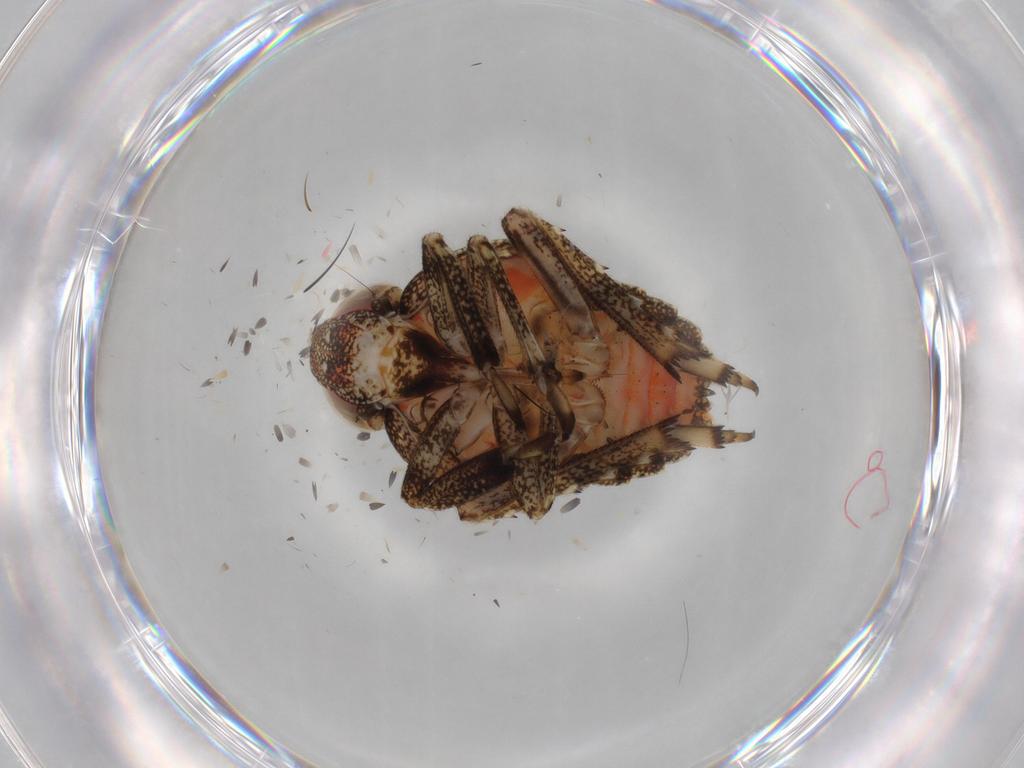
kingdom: Animalia
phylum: Arthropoda
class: Insecta
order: Hemiptera
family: Issidae
